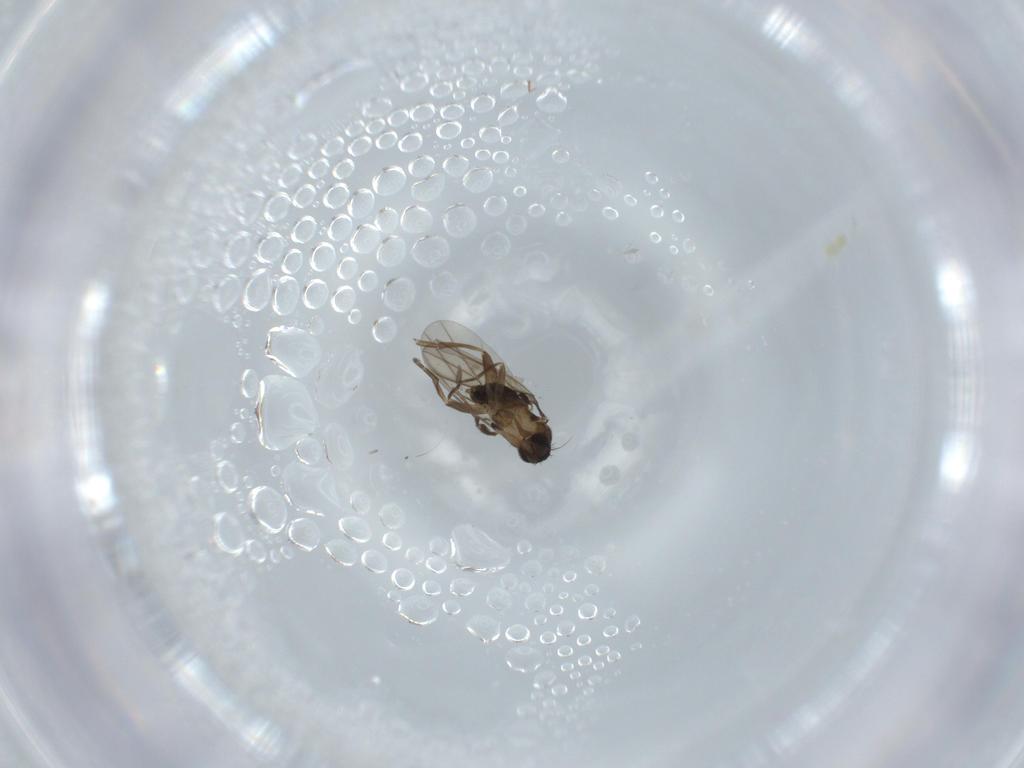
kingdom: Animalia
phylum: Arthropoda
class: Insecta
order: Diptera
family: Phoridae
